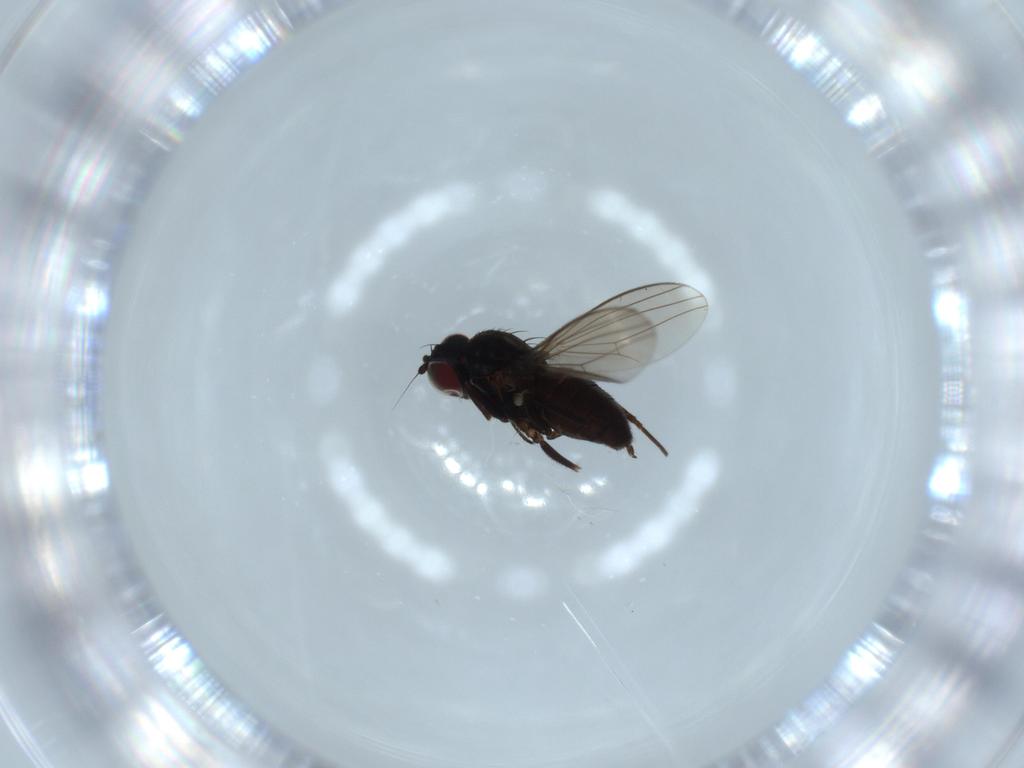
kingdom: Animalia
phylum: Arthropoda
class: Insecta
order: Diptera
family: Dolichopodidae
